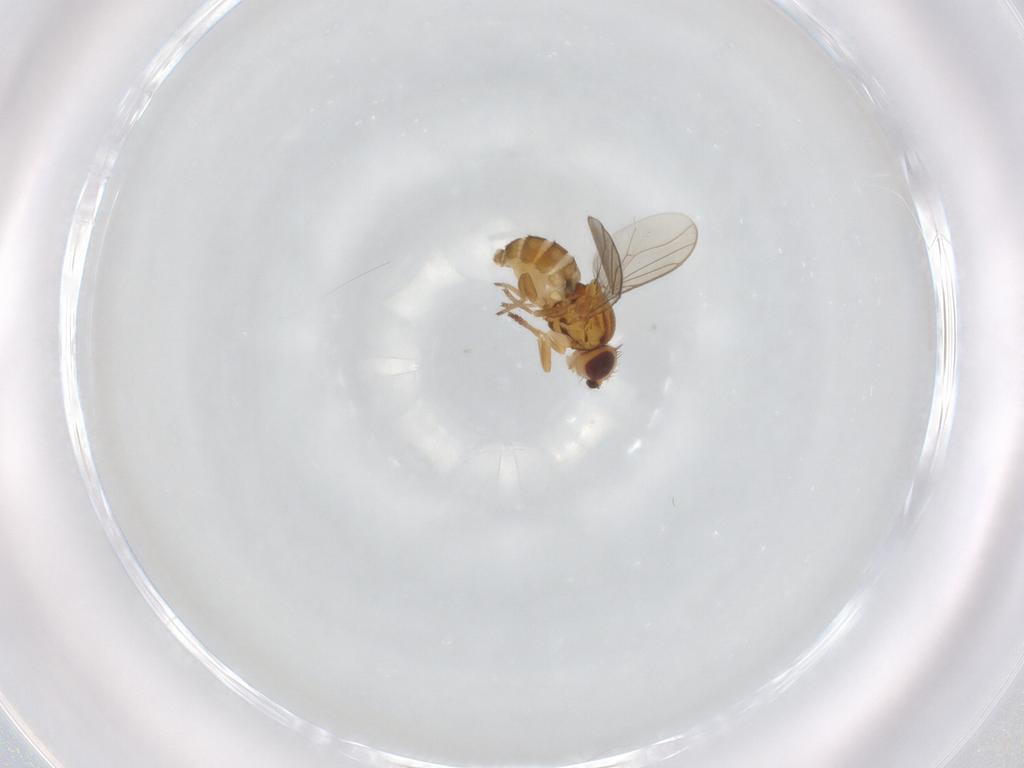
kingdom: Animalia
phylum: Arthropoda
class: Insecta
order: Diptera
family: Chloropidae
